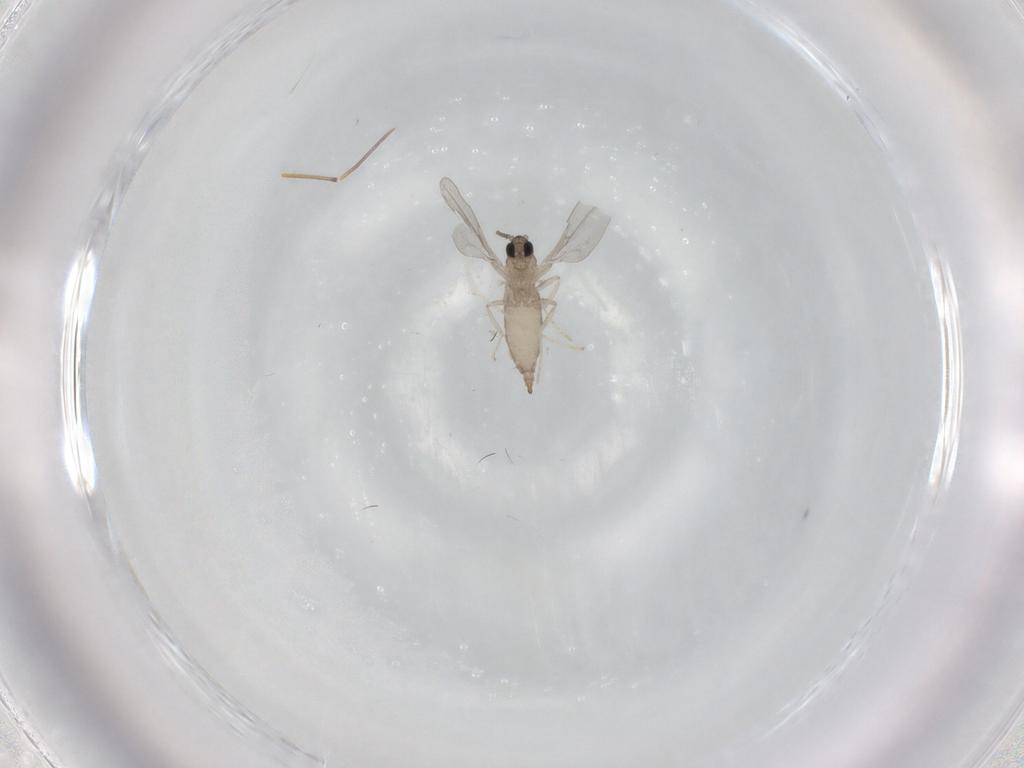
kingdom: Animalia
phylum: Arthropoda
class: Insecta
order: Diptera
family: Cecidomyiidae
